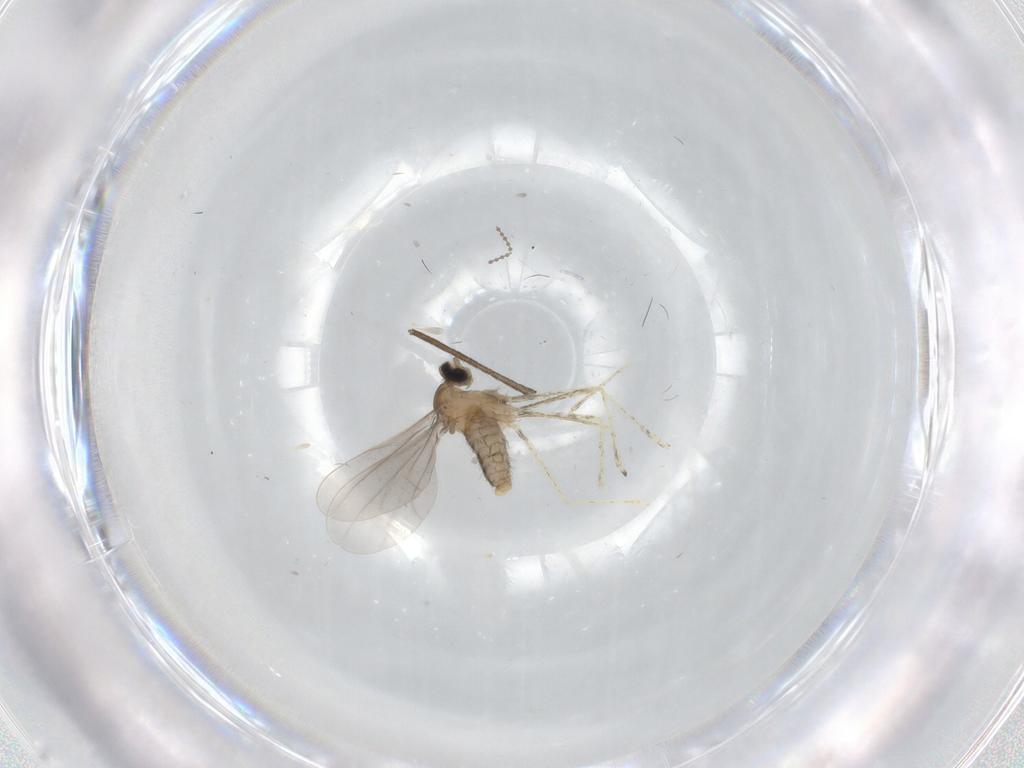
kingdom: Animalia
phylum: Arthropoda
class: Insecta
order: Diptera
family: Cecidomyiidae
